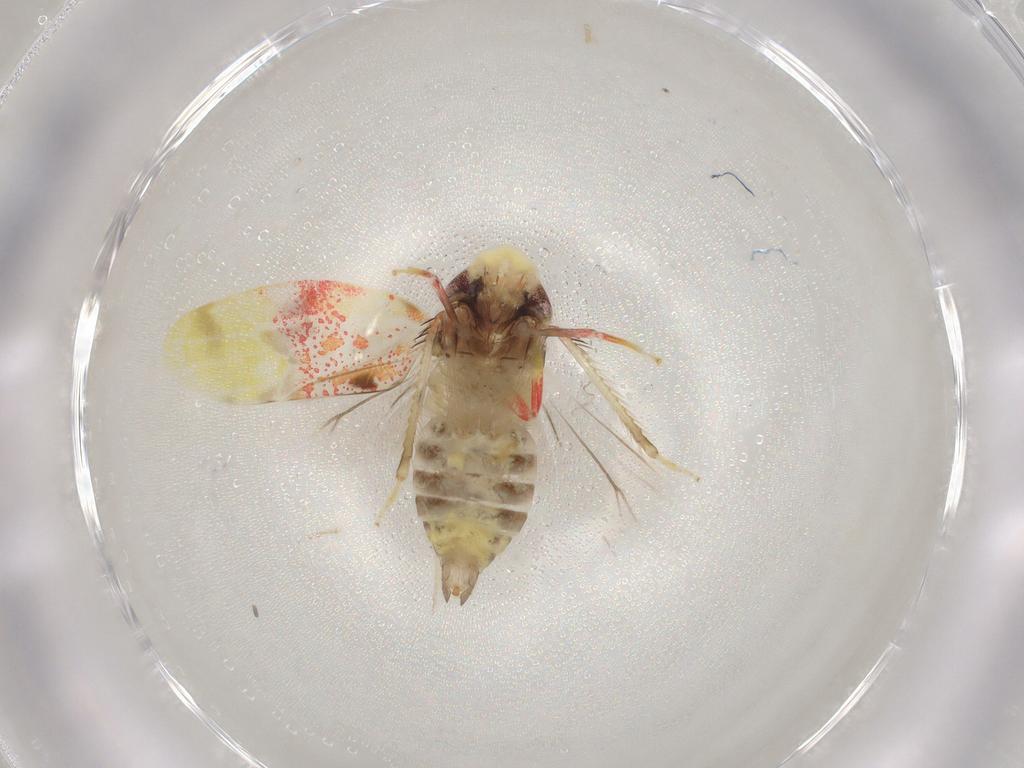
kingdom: Animalia
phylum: Arthropoda
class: Insecta
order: Hemiptera
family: Cicadellidae
